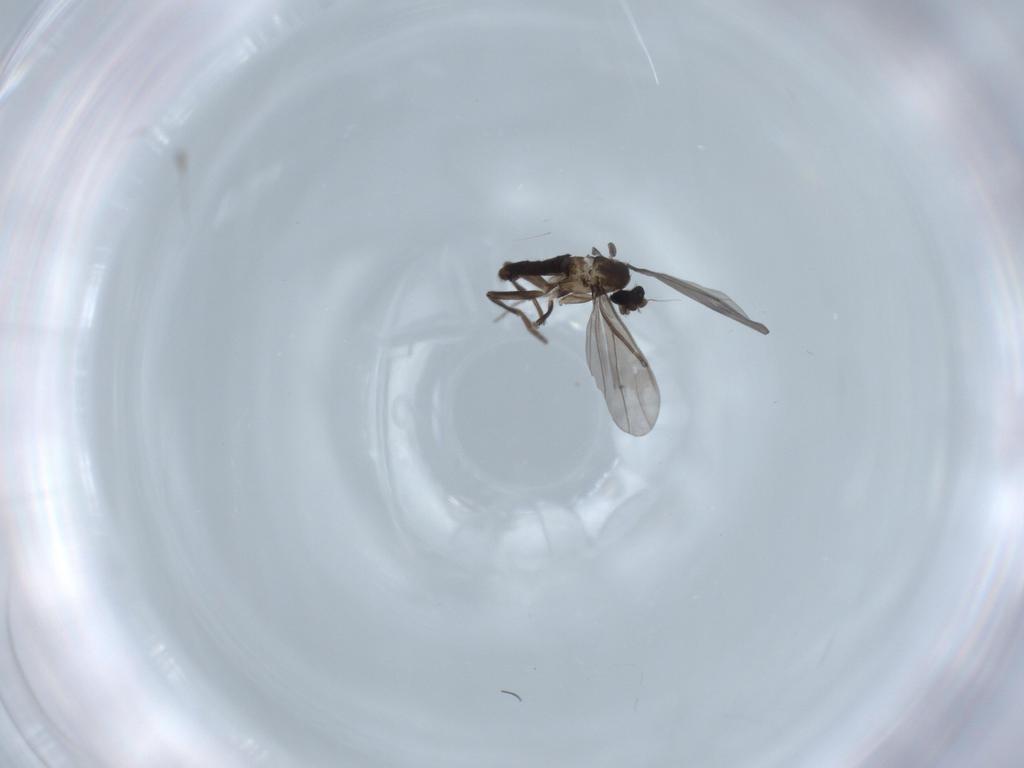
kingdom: Animalia
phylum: Arthropoda
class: Insecta
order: Diptera
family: Phoridae
